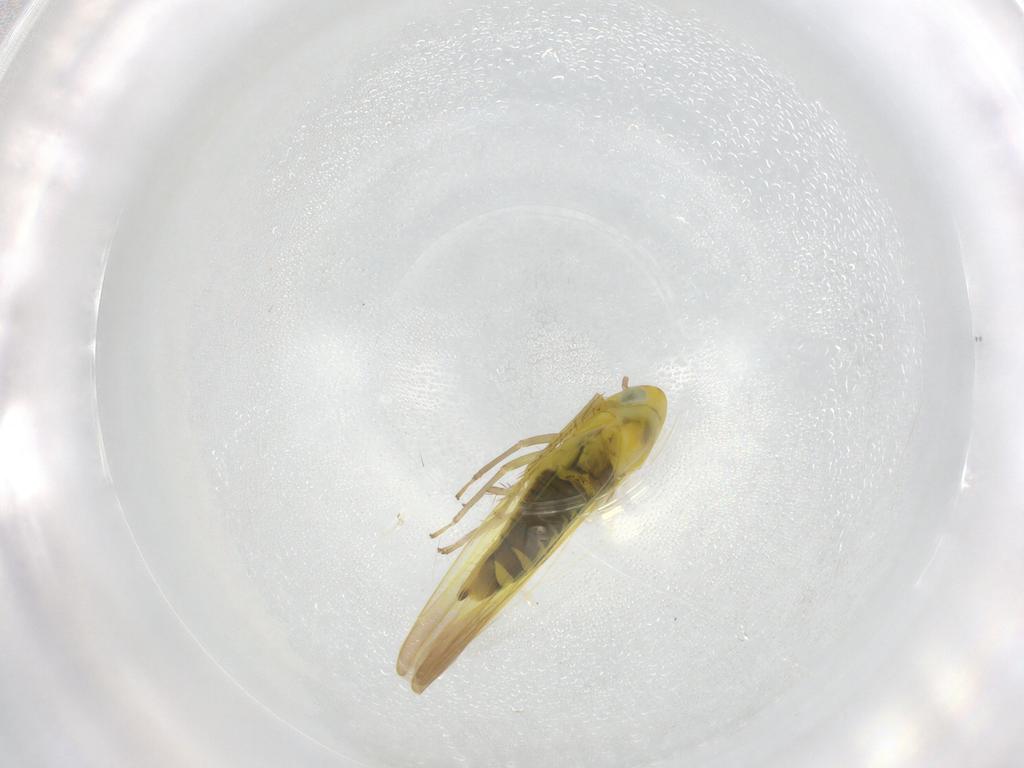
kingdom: Animalia
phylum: Arthropoda
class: Insecta
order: Hemiptera
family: Cicadellidae
